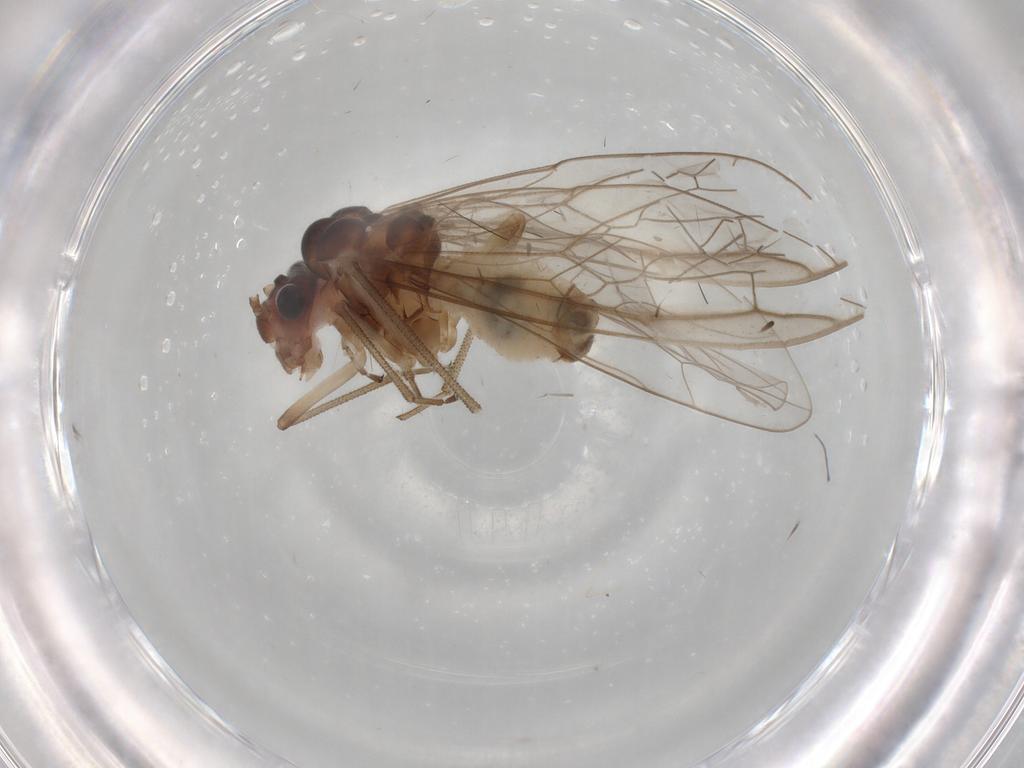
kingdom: Animalia
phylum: Arthropoda
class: Insecta
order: Psocodea
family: Stenopsocidae
